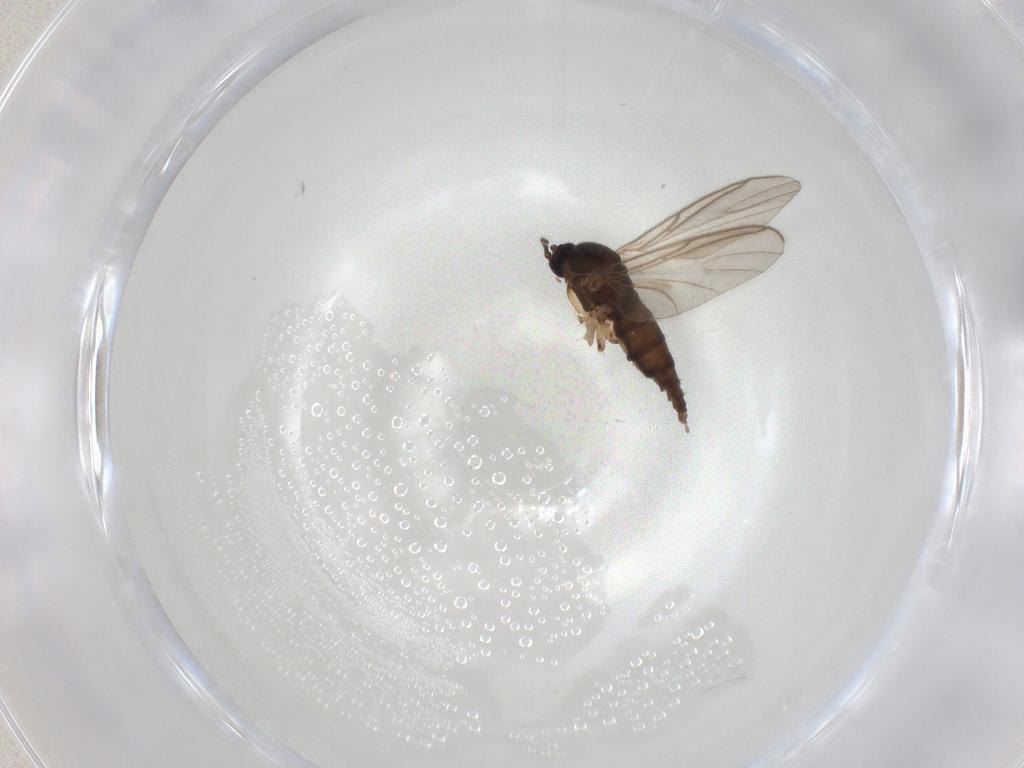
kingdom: Animalia
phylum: Arthropoda
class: Insecta
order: Diptera
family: Sciaridae
